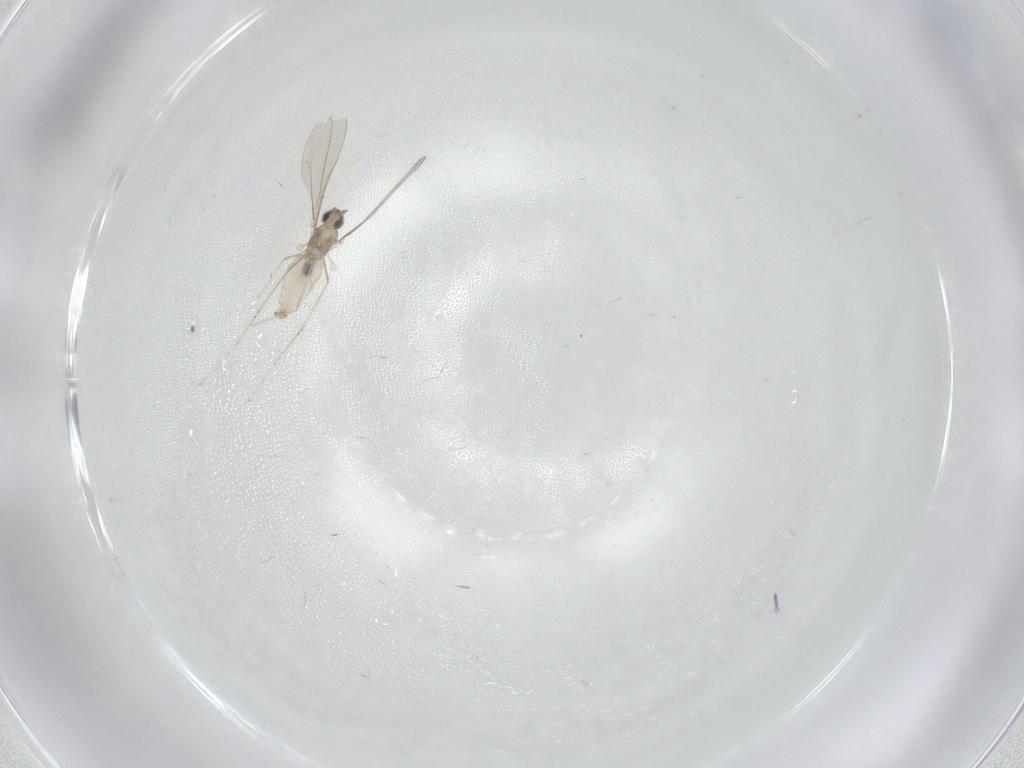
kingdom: Animalia
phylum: Arthropoda
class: Insecta
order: Diptera
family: Cecidomyiidae
